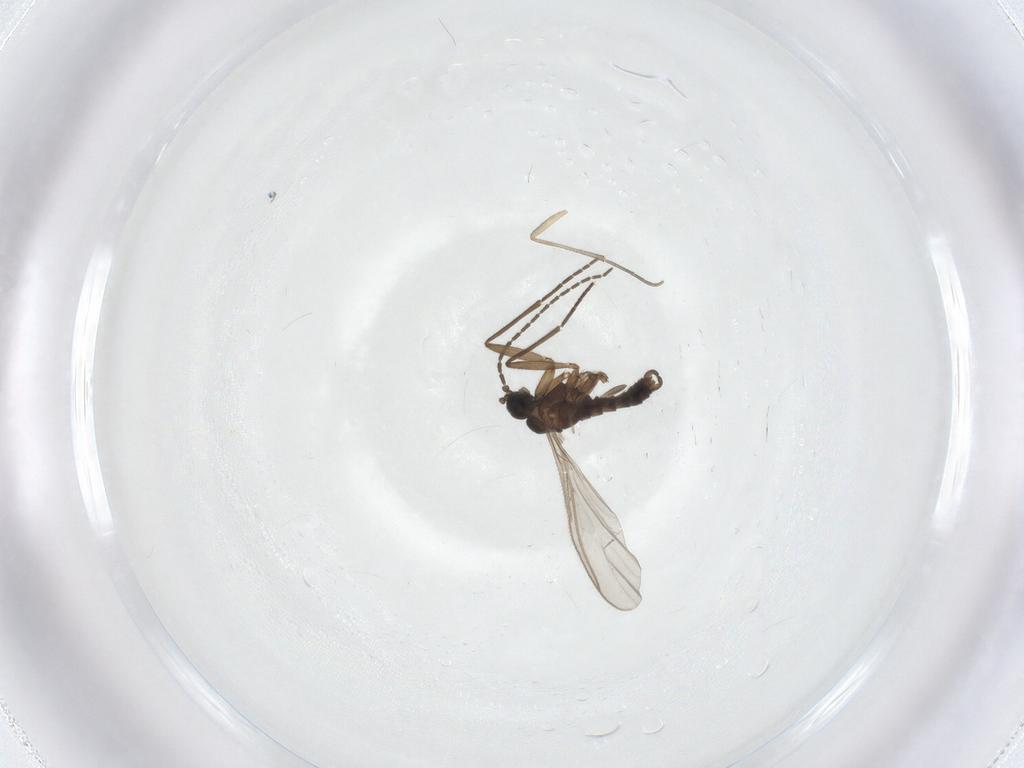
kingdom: Animalia
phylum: Arthropoda
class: Insecta
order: Diptera
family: Sciaridae
